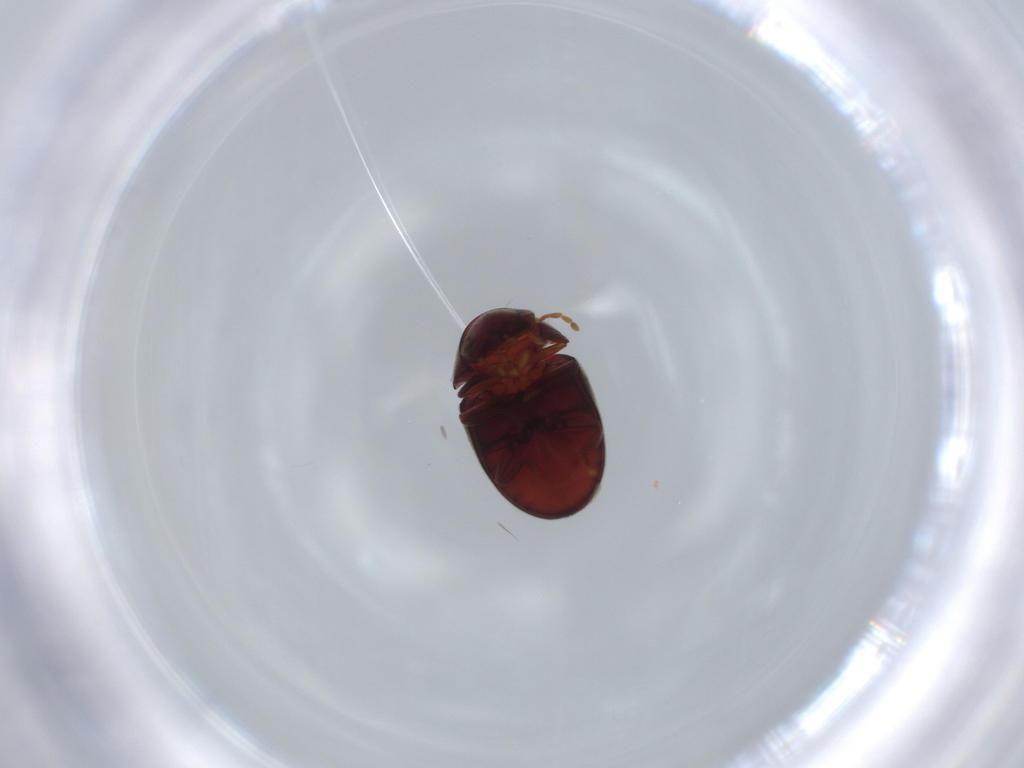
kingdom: Animalia
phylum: Arthropoda
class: Insecta
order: Coleoptera
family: Ptinidae
